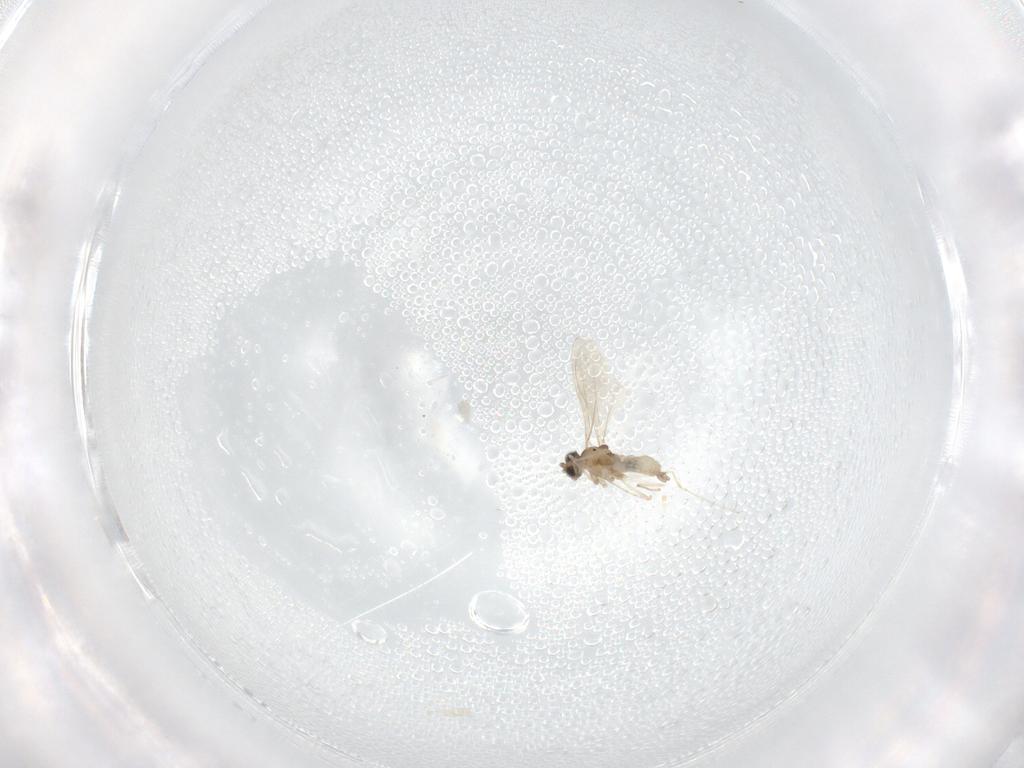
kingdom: Animalia
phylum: Arthropoda
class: Insecta
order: Diptera
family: Cecidomyiidae
